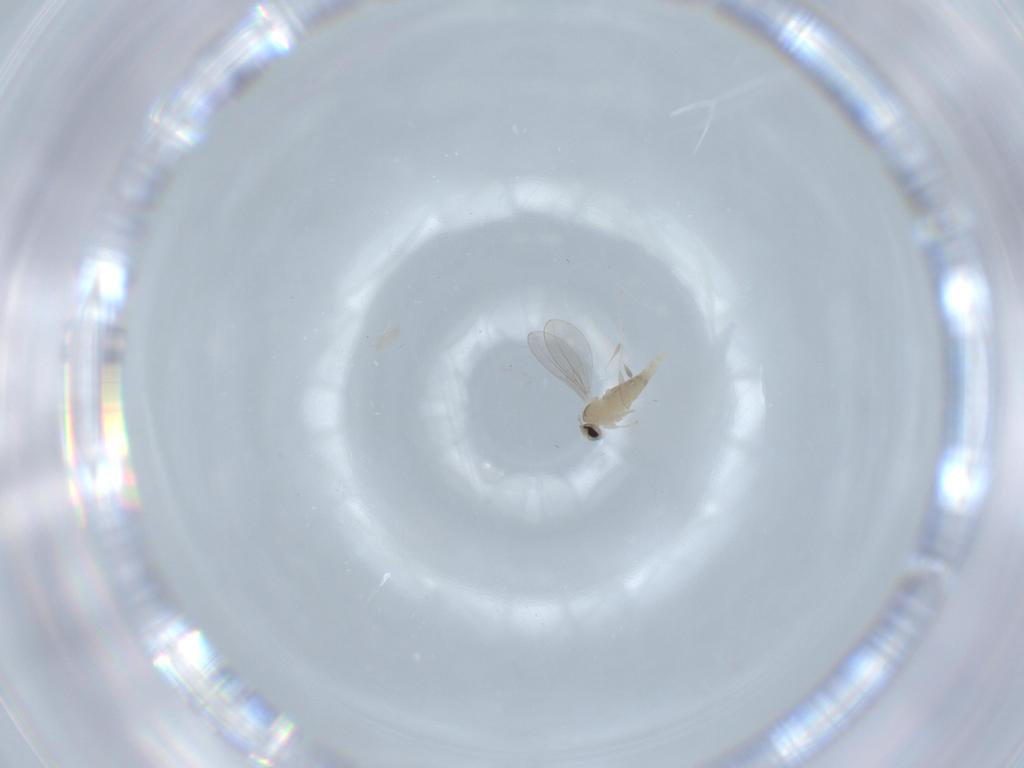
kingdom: Animalia
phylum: Arthropoda
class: Insecta
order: Diptera
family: Cecidomyiidae
